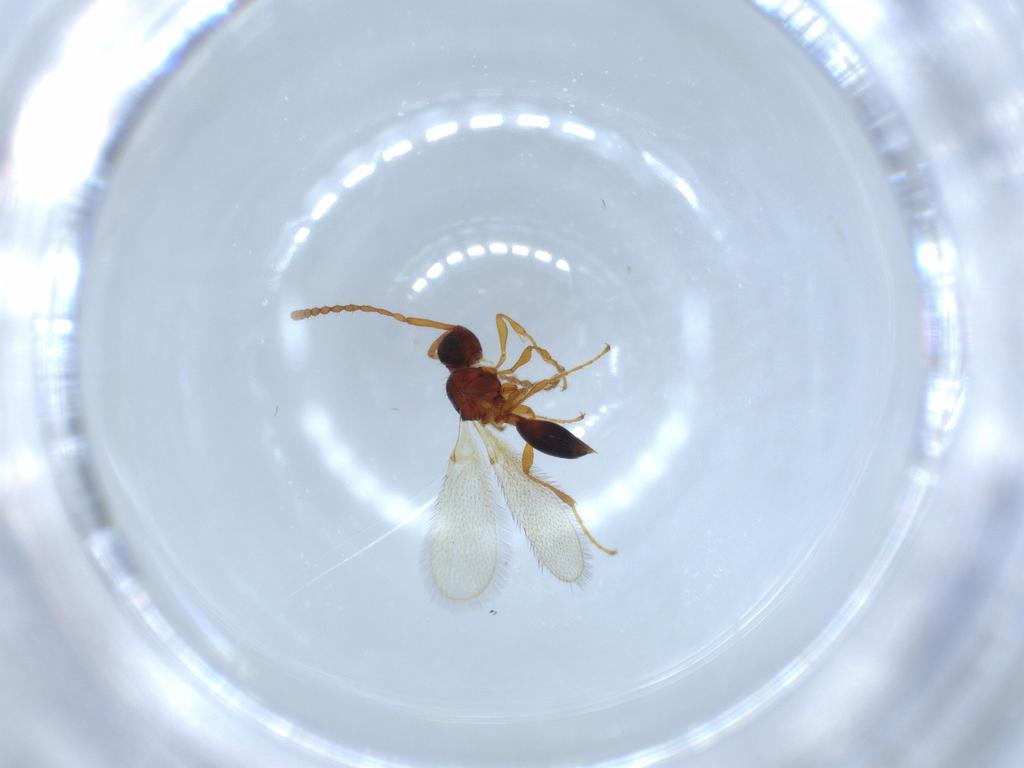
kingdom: Animalia
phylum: Arthropoda
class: Insecta
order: Hymenoptera
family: Diapriidae
